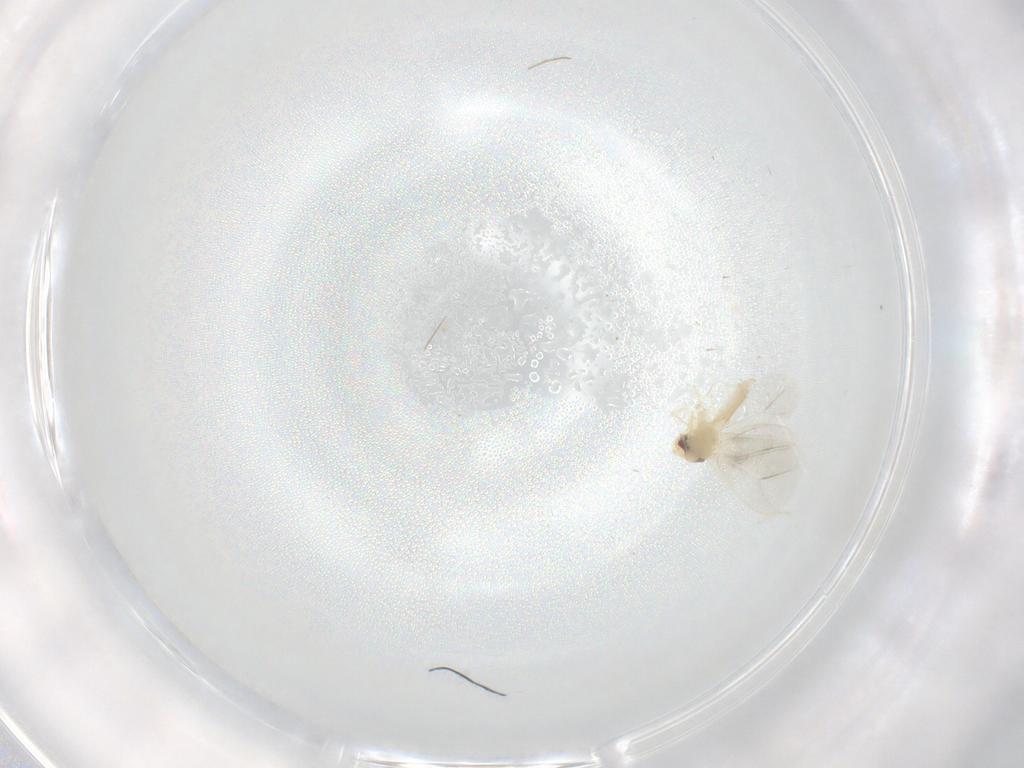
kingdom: Animalia
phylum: Arthropoda
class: Insecta
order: Hemiptera
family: Aleyrodidae
